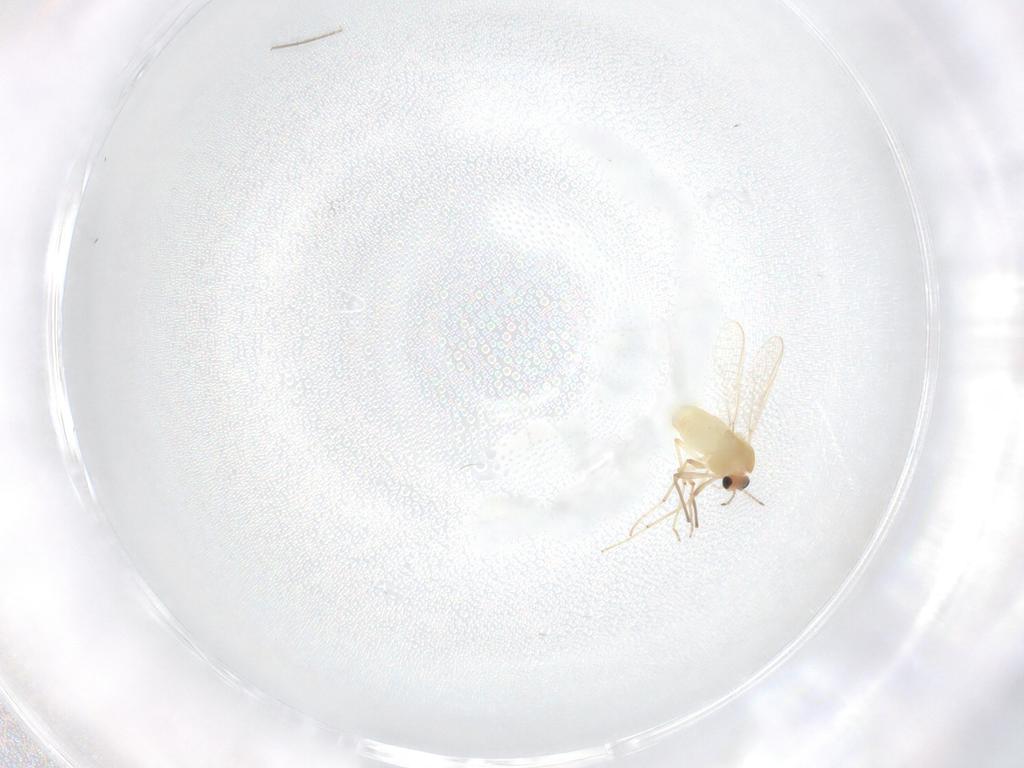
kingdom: Animalia
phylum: Arthropoda
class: Insecta
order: Diptera
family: Chironomidae
